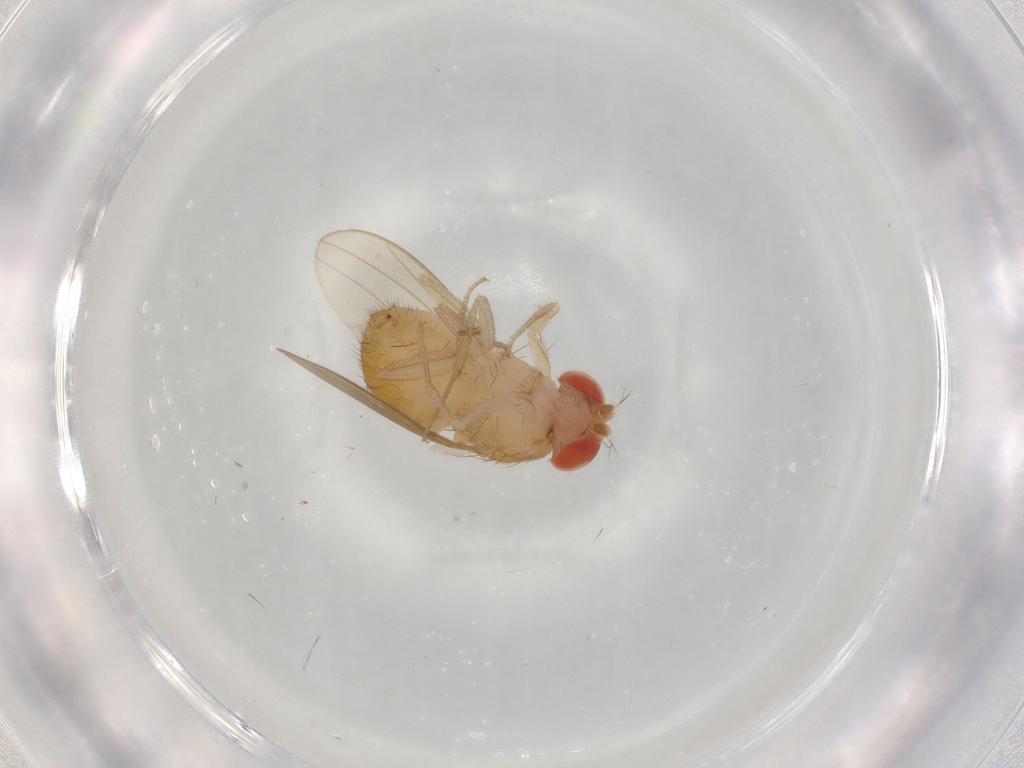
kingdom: Animalia
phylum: Arthropoda
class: Insecta
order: Diptera
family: Drosophilidae
